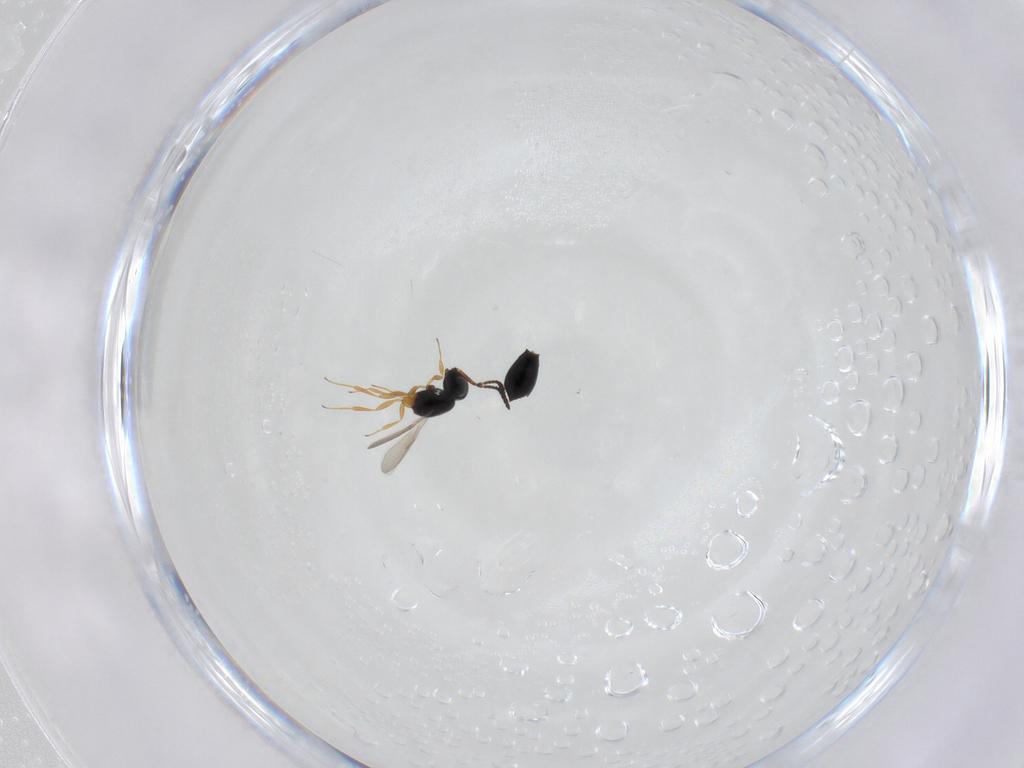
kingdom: Animalia
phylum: Arthropoda
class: Insecta
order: Hymenoptera
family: Scelionidae
